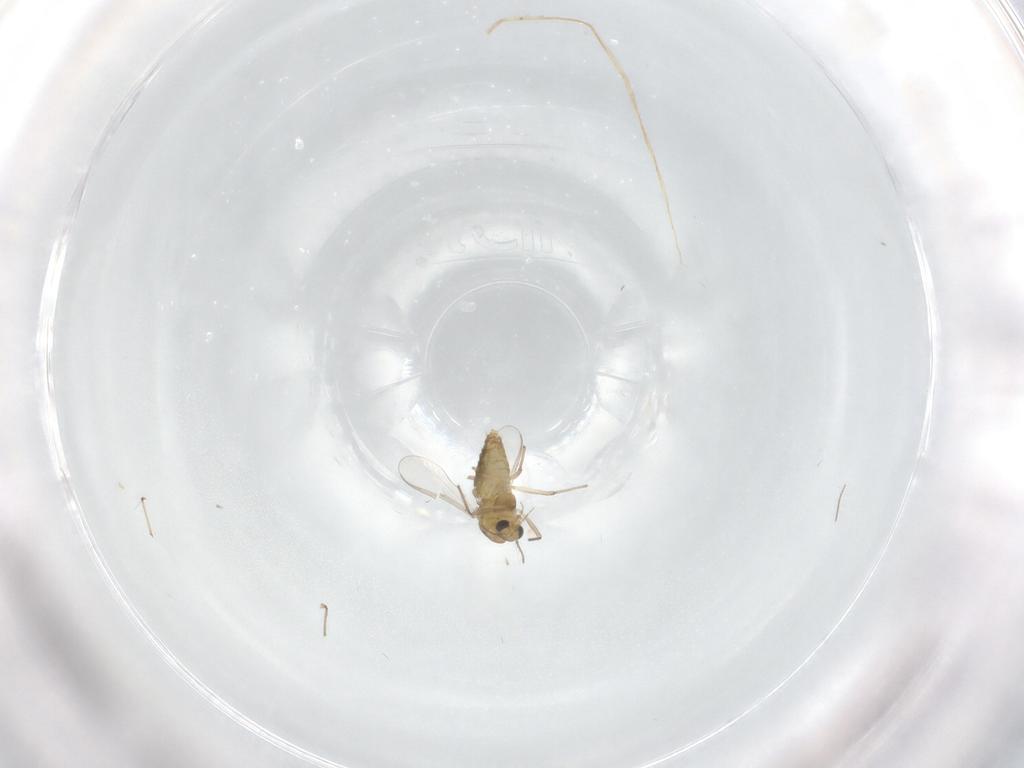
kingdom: Animalia
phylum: Arthropoda
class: Insecta
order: Diptera
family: Chironomidae
